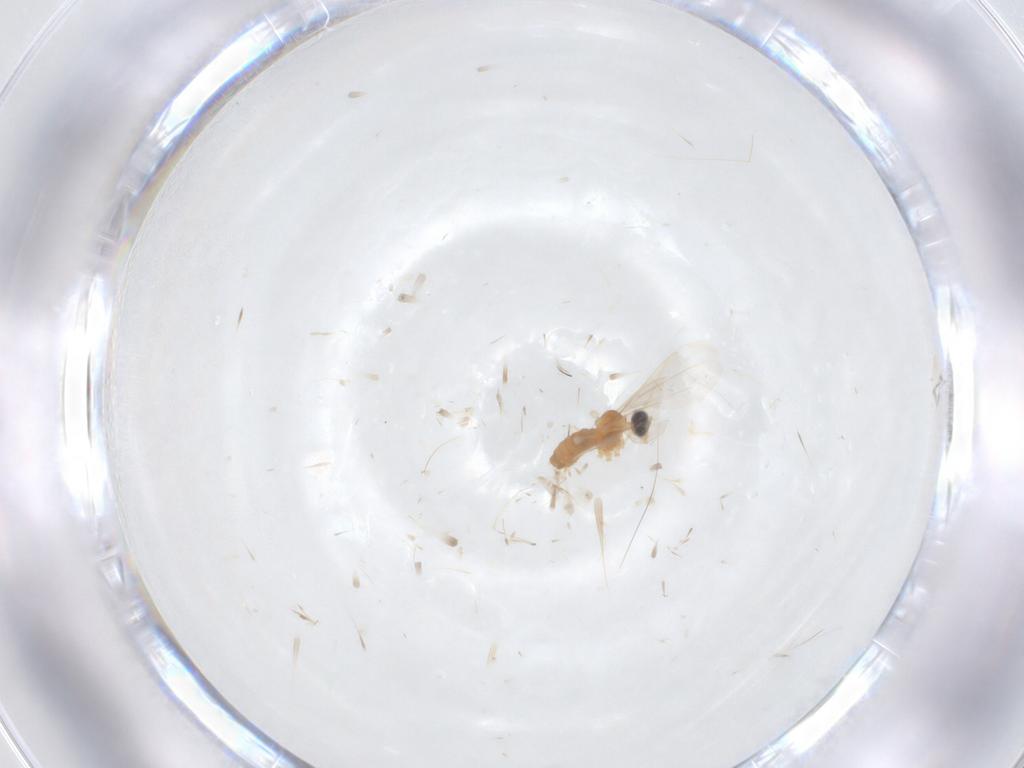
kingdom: Animalia
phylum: Arthropoda
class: Insecta
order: Diptera
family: Cecidomyiidae
